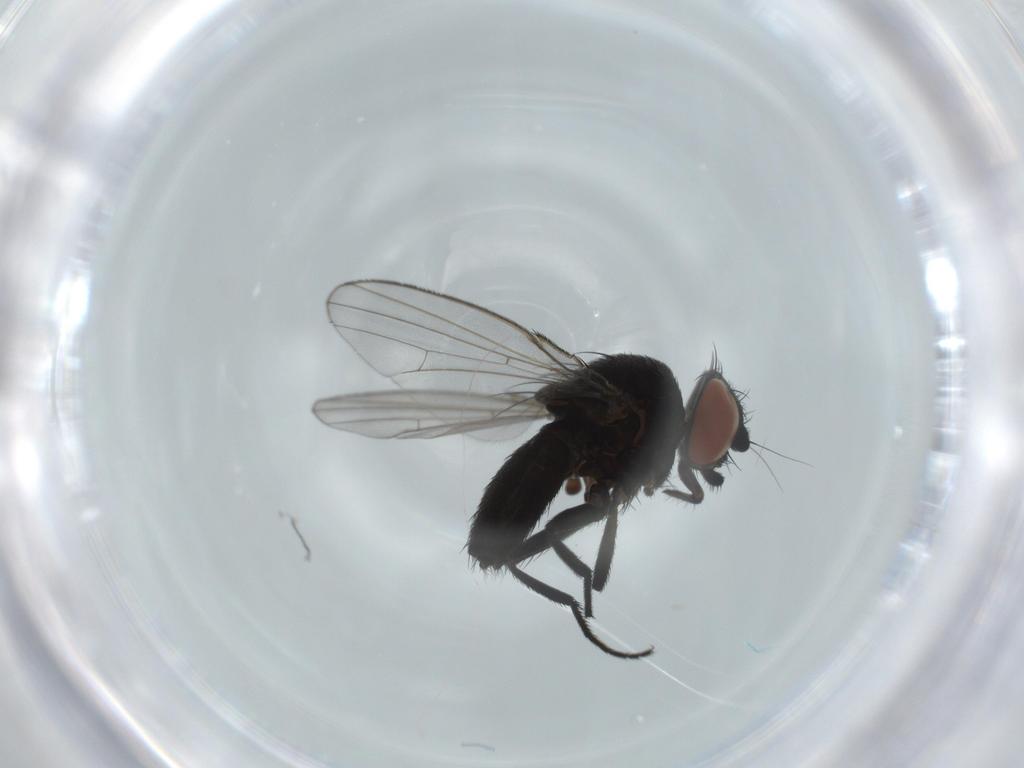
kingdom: Animalia
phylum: Arthropoda
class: Insecta
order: Diptera
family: Milichiidae
